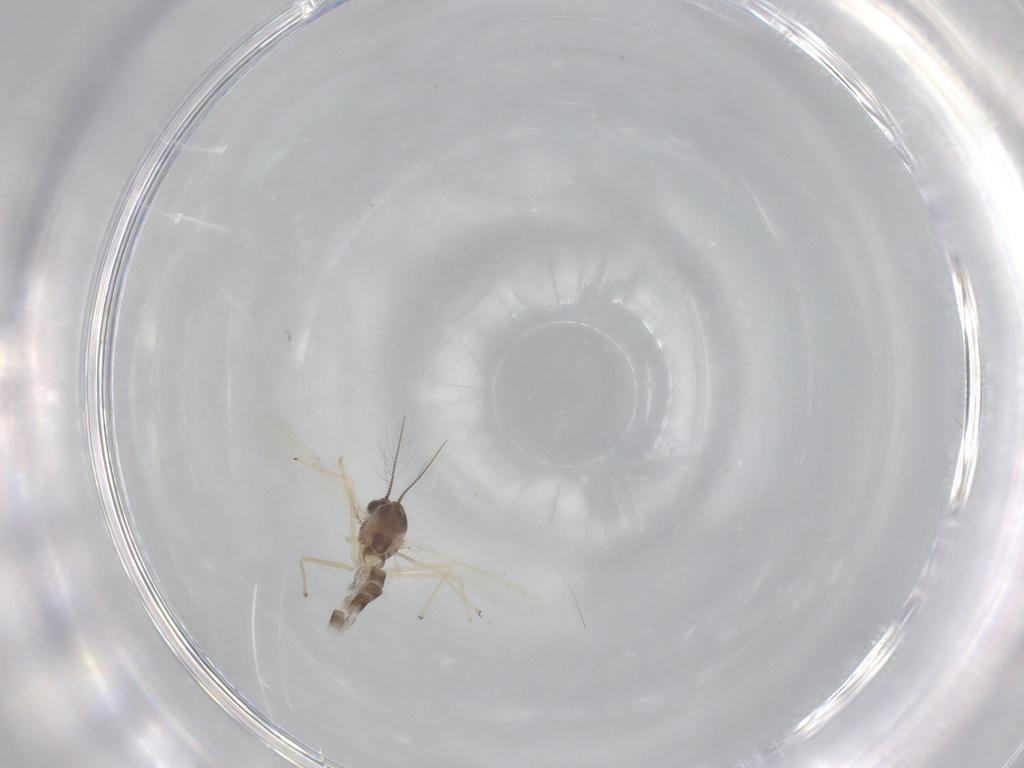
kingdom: Animalia
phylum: Arthropoda
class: Insecta
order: Diptera
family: Chironomidae
